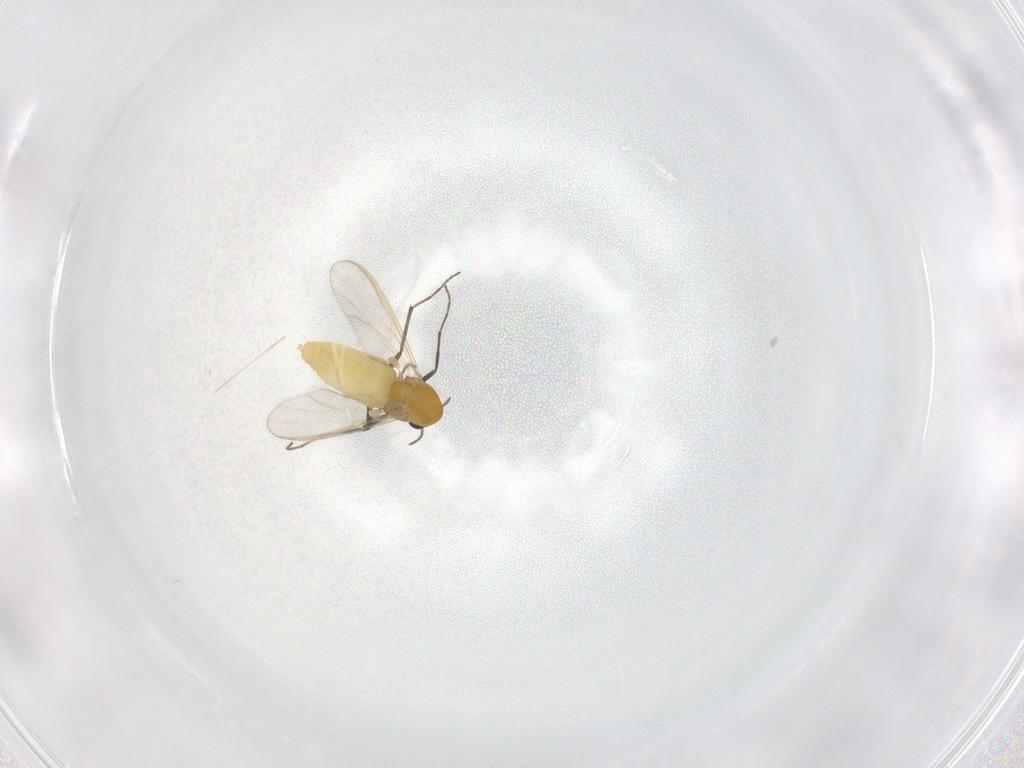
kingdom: Animalia
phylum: Arthropoda
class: Insecta
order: Diptera
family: Chironomidae
